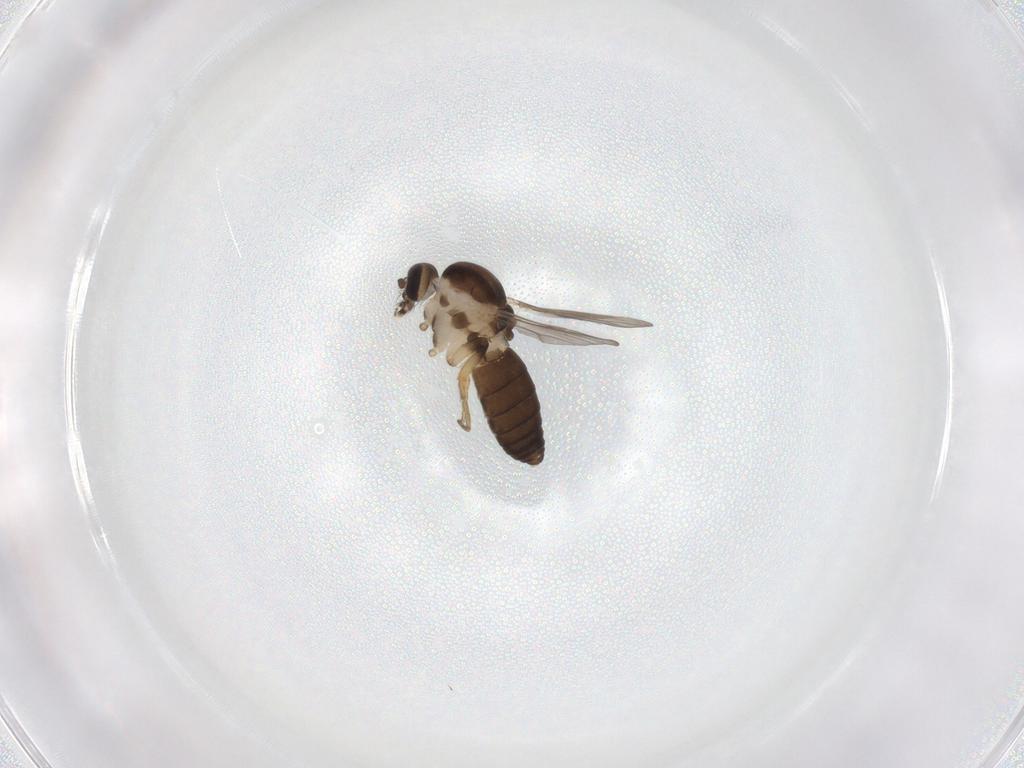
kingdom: Animalia
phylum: Arthropoda
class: Insecta
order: Diptera
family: Ceratopogonidae
